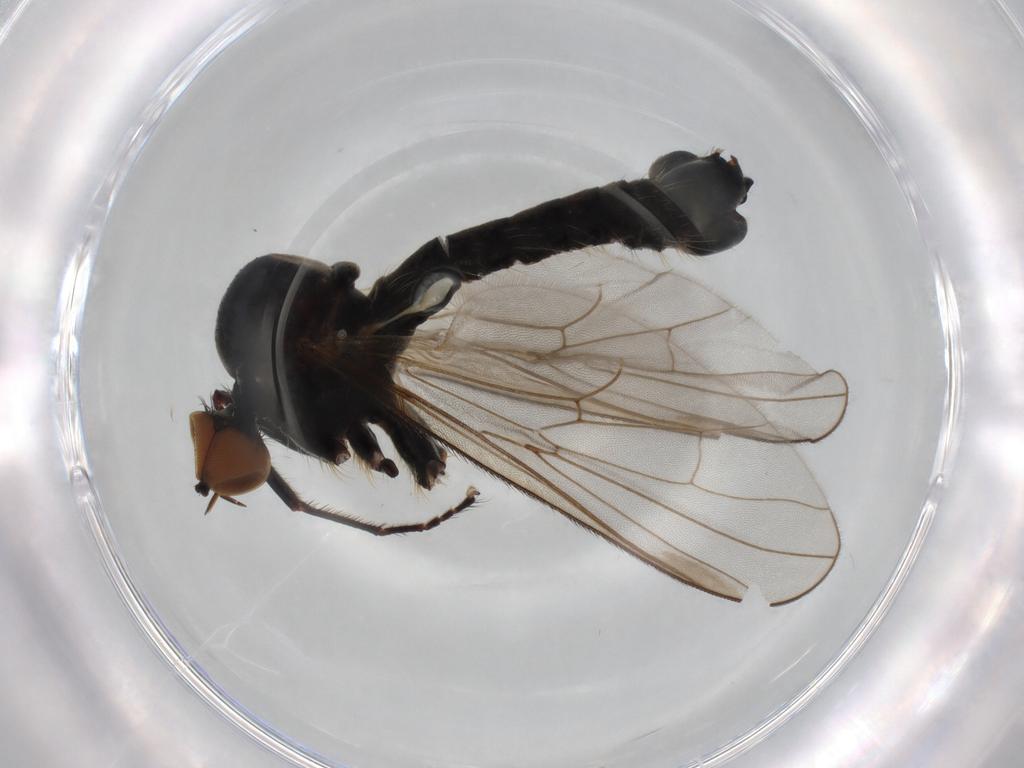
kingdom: Animalia
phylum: Arthropoda
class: Insecta
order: Diptera
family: Hybotidae
